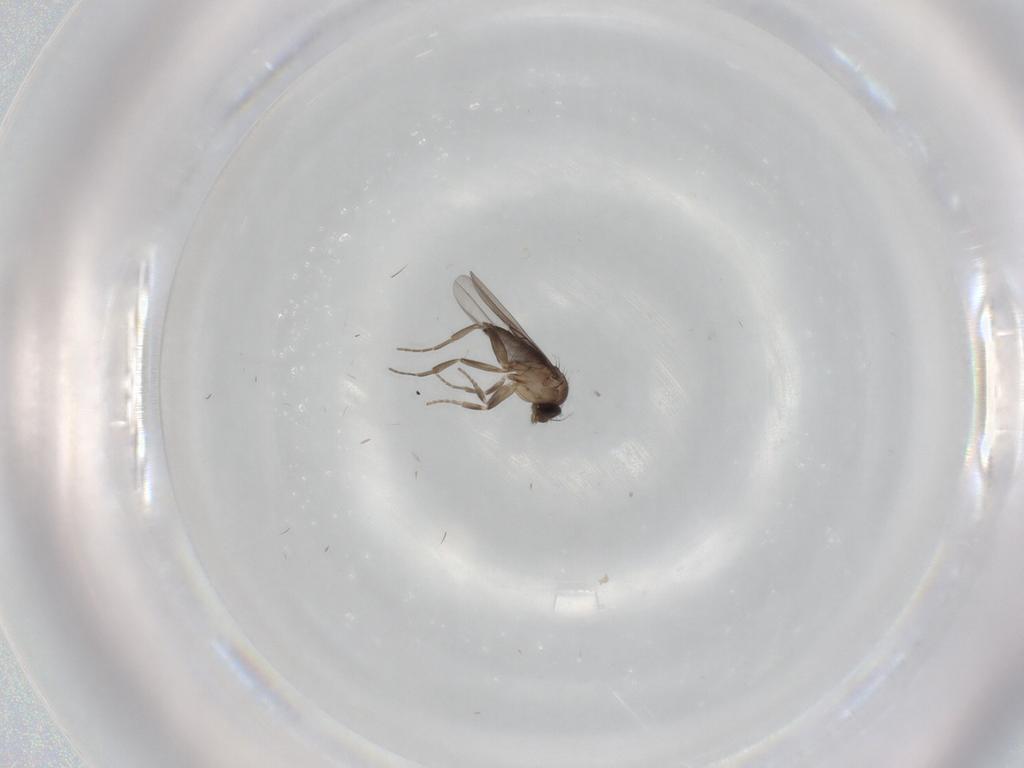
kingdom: Animalia
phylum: Arthropoda
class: Insecta
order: Diptera
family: Phoridae
